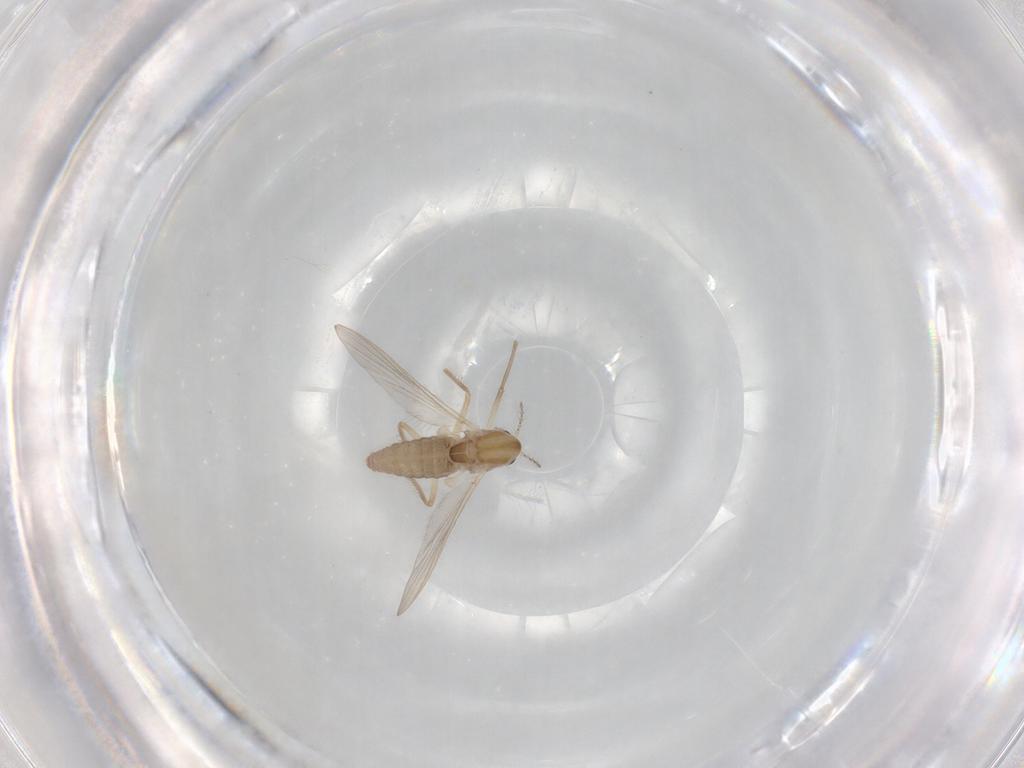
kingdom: Animalia
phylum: Arthropoda
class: Insecta
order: Diptera
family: Chironomidae
